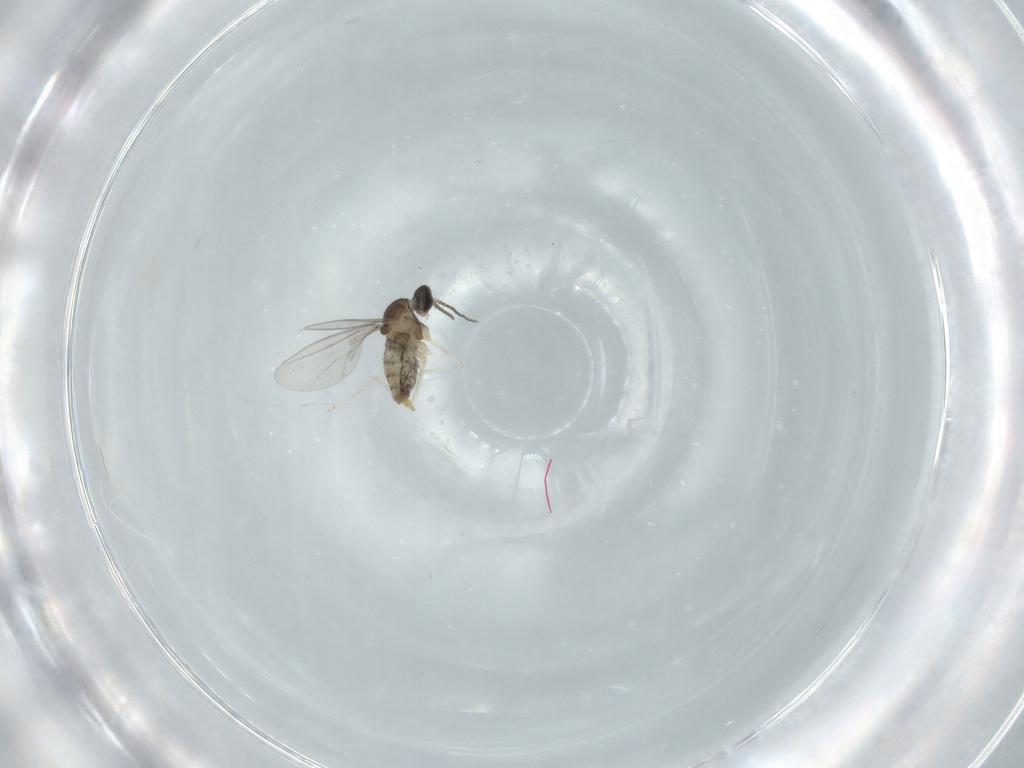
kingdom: Animalia
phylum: Arthropoda
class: Insecta
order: Diptera
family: Cecidomyiidae
